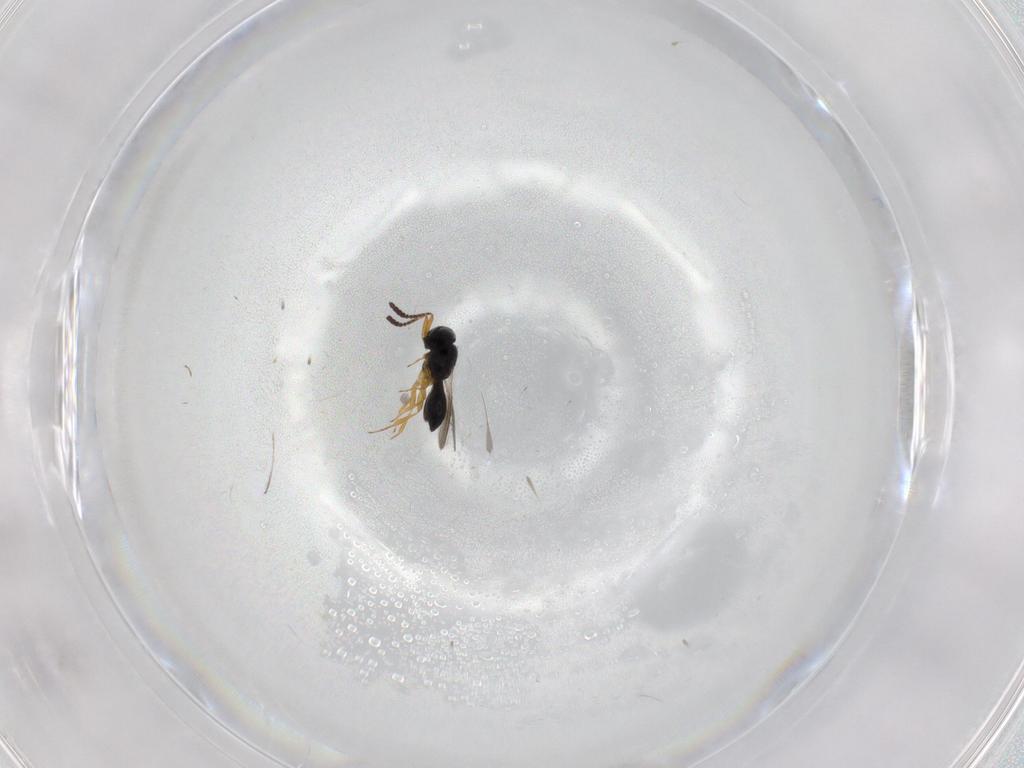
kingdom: Animalia
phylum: Arthropoda
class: Insecta
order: Hymenoptera
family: Scelionidae
